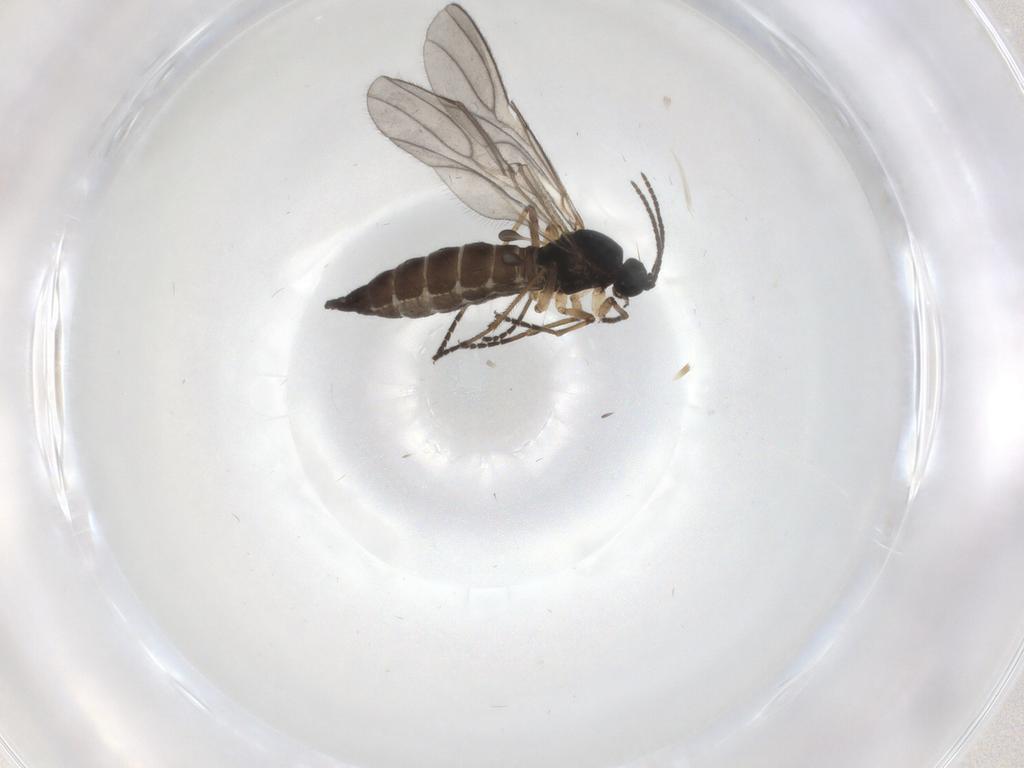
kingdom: Animalia
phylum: Arthropoda
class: Insecta
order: Diptera
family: Sciaridae
